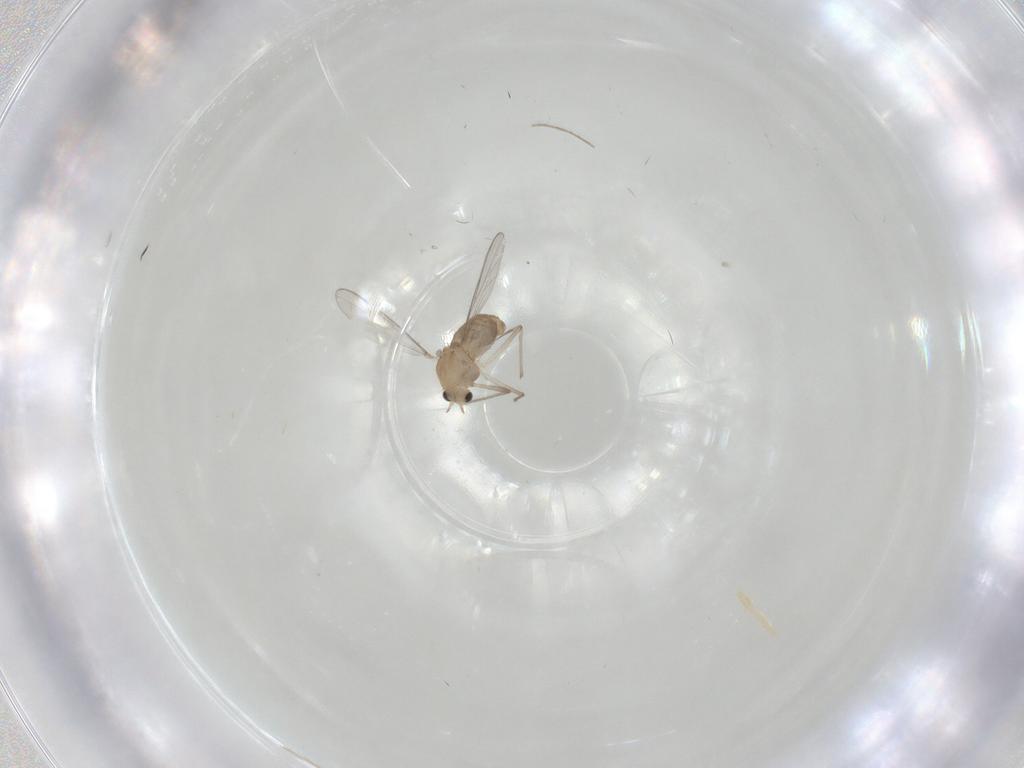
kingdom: Animalia
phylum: Arthropoda
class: Insecta
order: Diptera
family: Chironomidae
